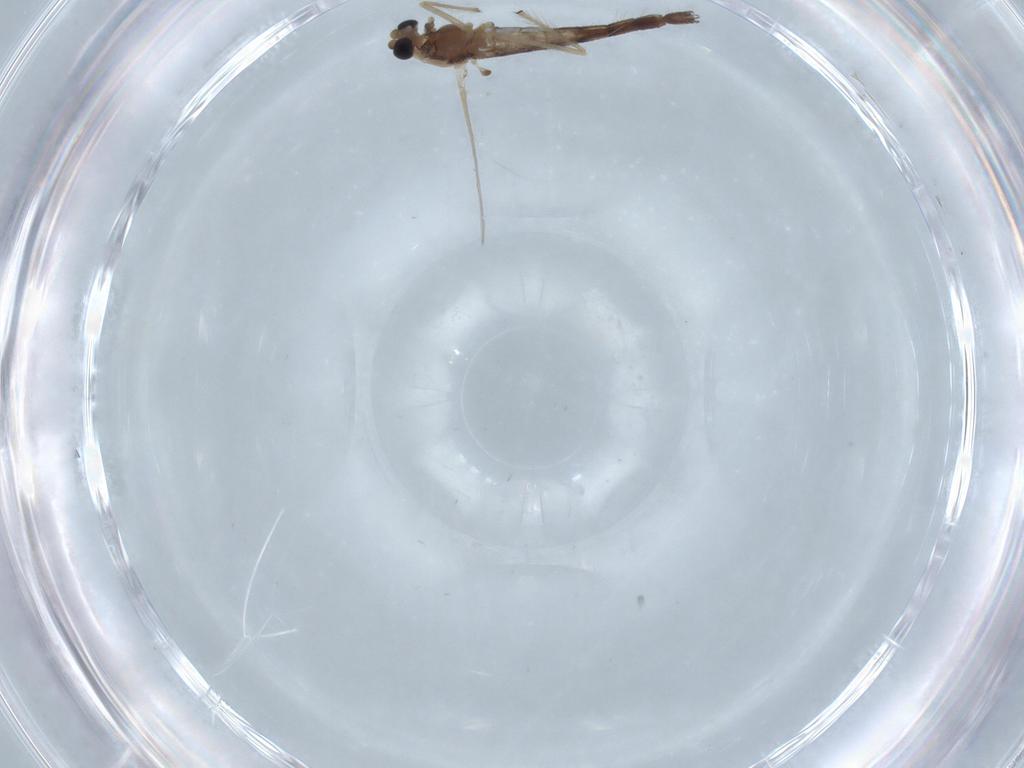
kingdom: Animalia
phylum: Arthropoda
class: Insecta
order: Diptera
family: Chironomidae
